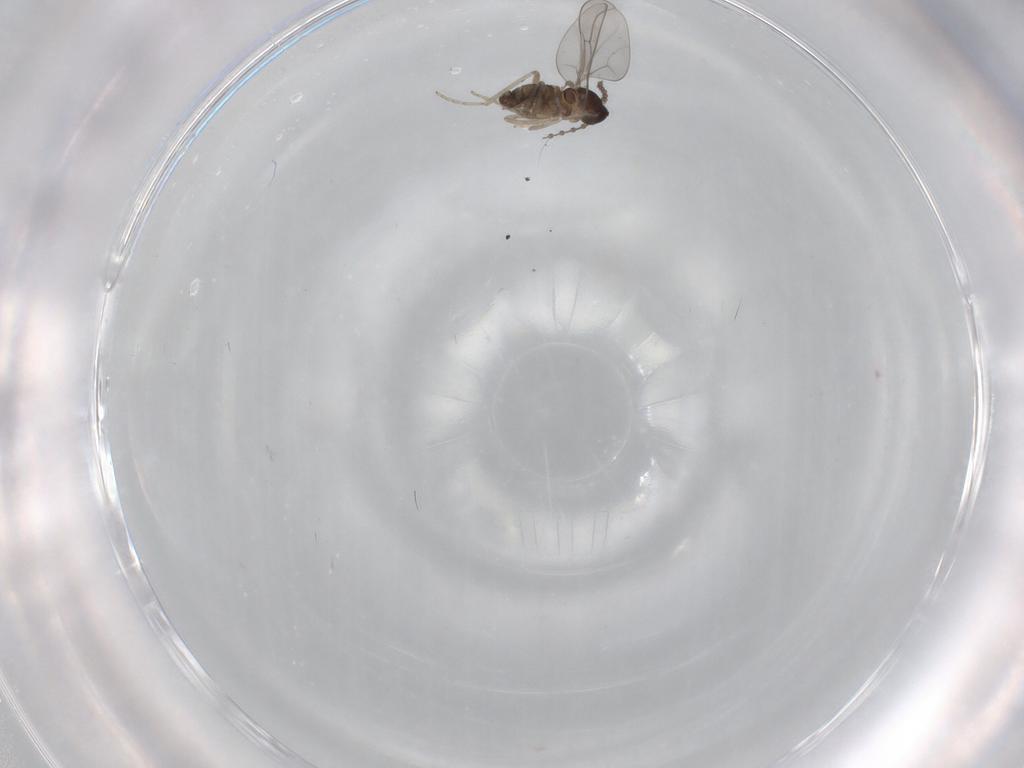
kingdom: Animalia
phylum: Arthropoda
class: Insecta
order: Diptera
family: Cecidomyiidae
